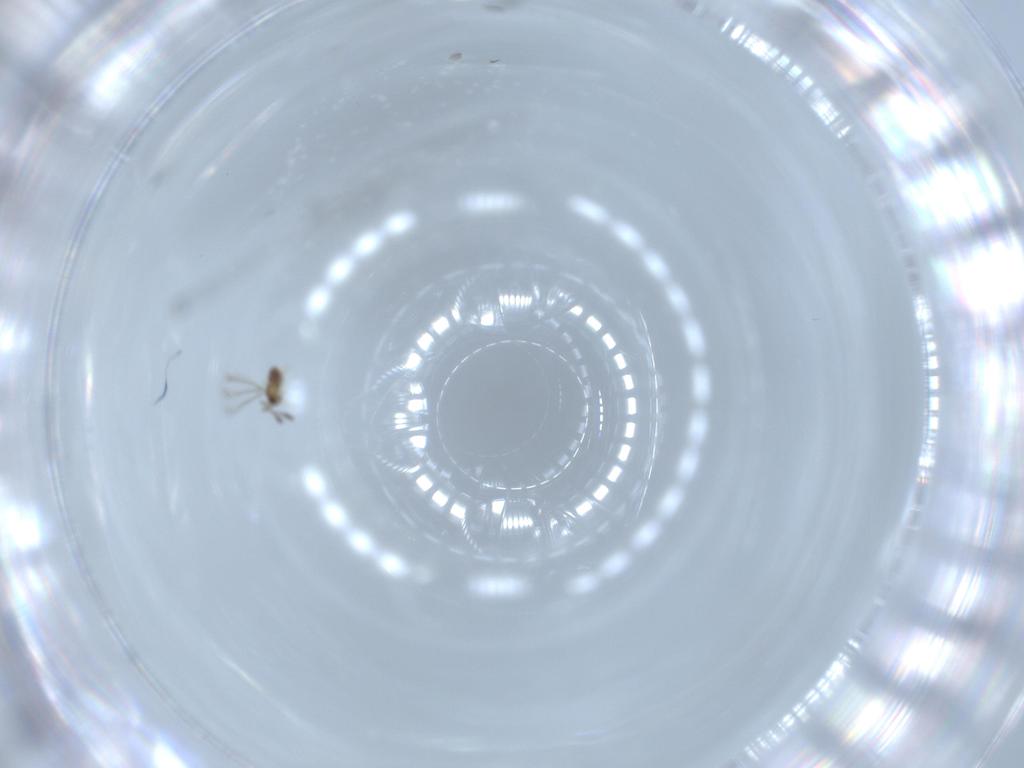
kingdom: Animalia
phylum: Arthropoda
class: Insecta
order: Hymenoptera
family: Mymaridae
